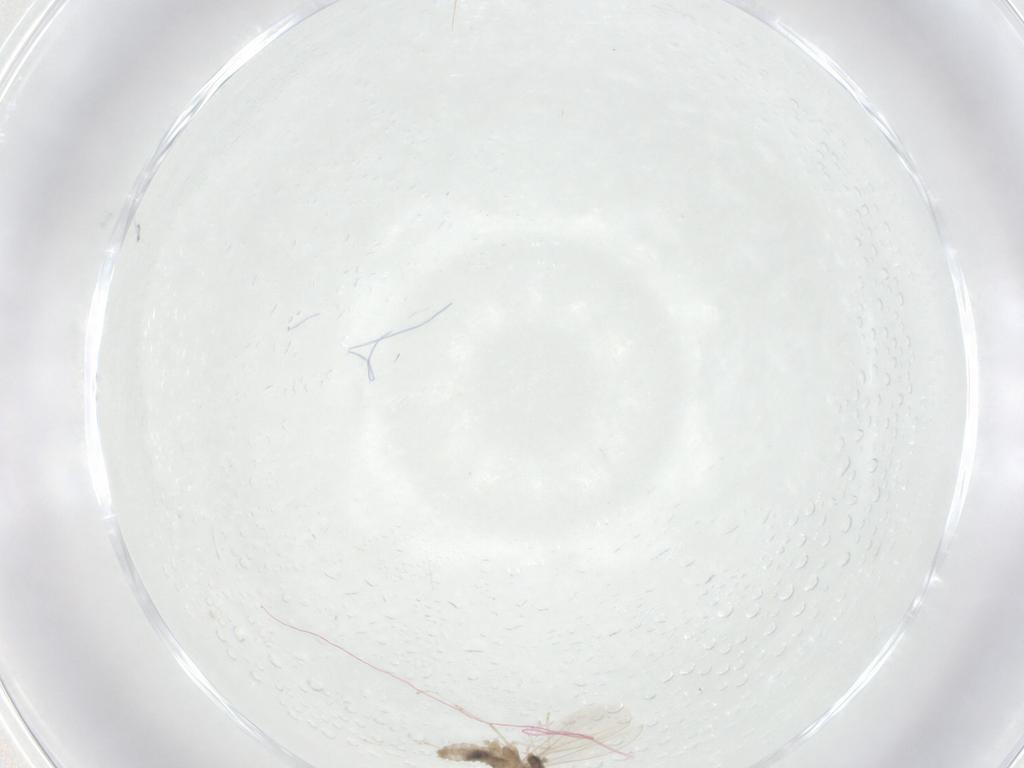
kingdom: Animalia
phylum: Arthropoda
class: Insecta
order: Diptera
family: Cecidomyiidae
